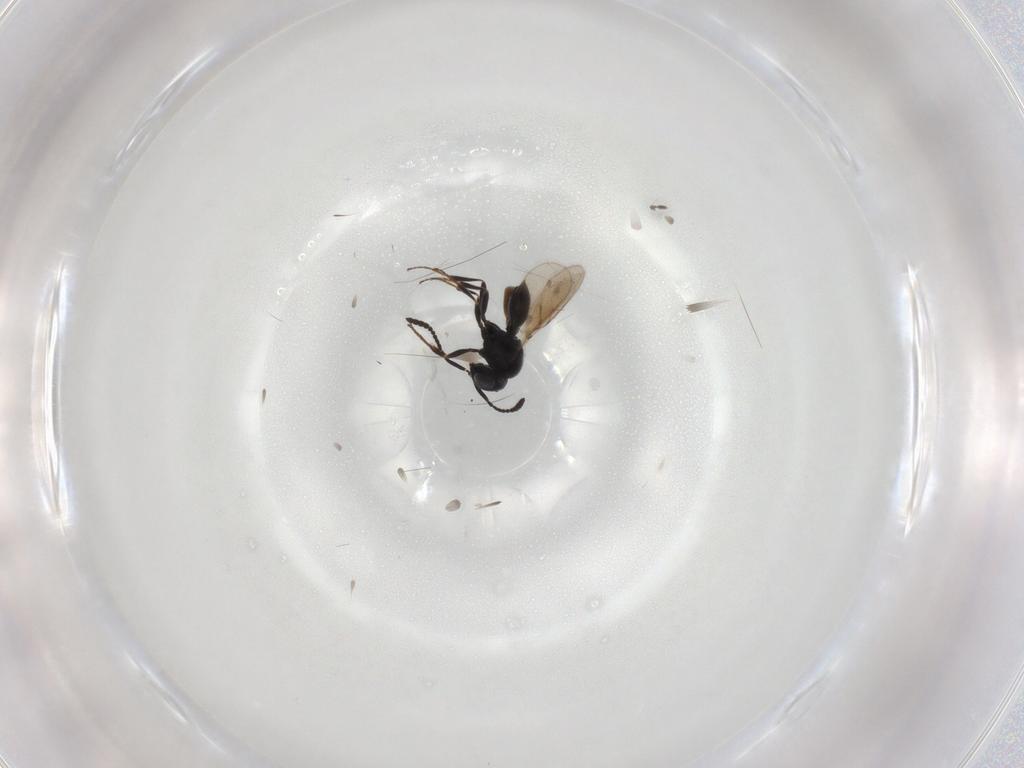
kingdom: Animalia
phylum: Arthropoda
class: Insecta
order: Hymenoptera
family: Scelionidae
